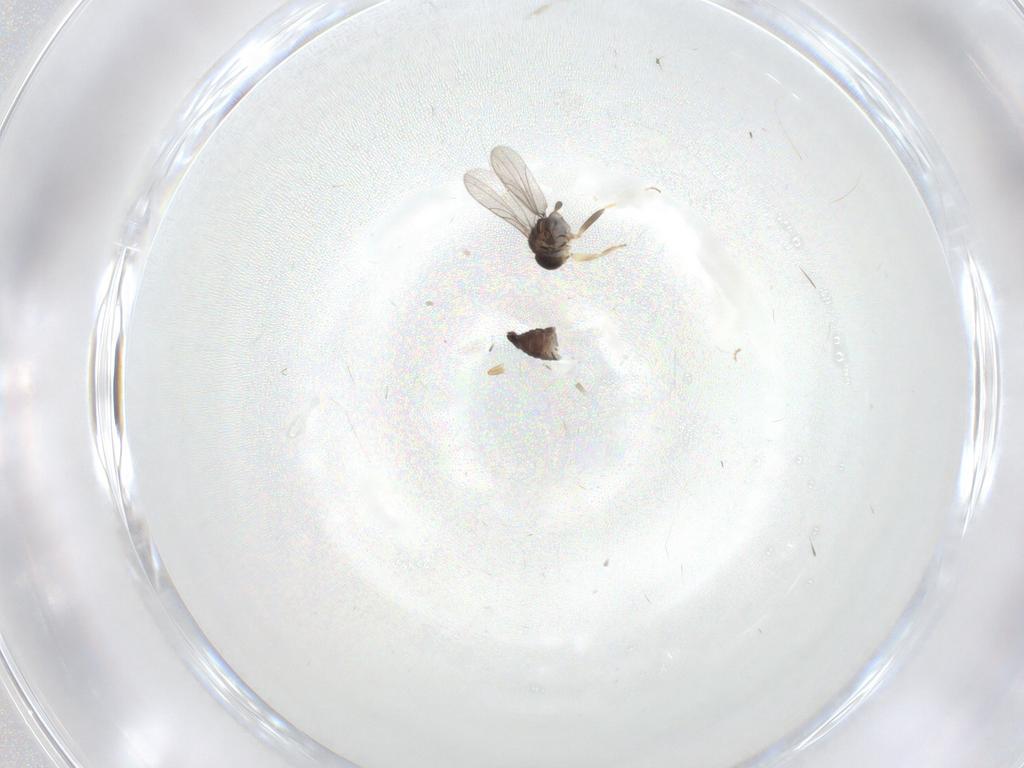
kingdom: Animalia
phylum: Arthropoda
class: Insecta
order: Diptera
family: Hybotidae
